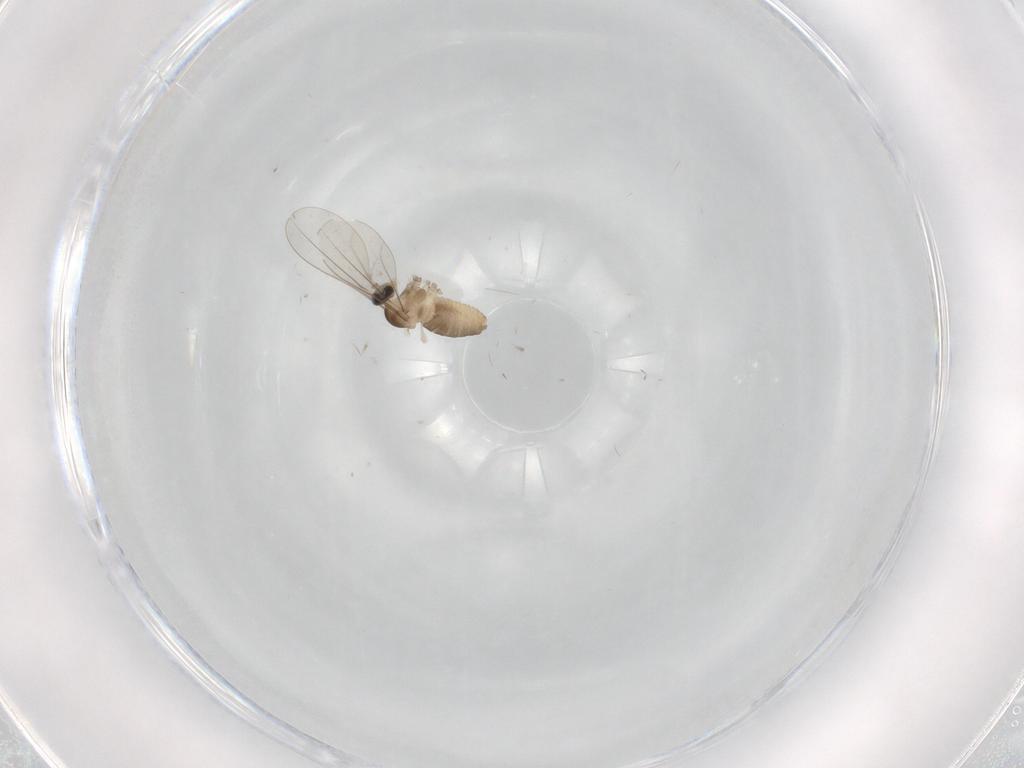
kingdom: Animalia
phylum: Arthropoda
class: Insecta
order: Diptera
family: Cecidomyiidae
